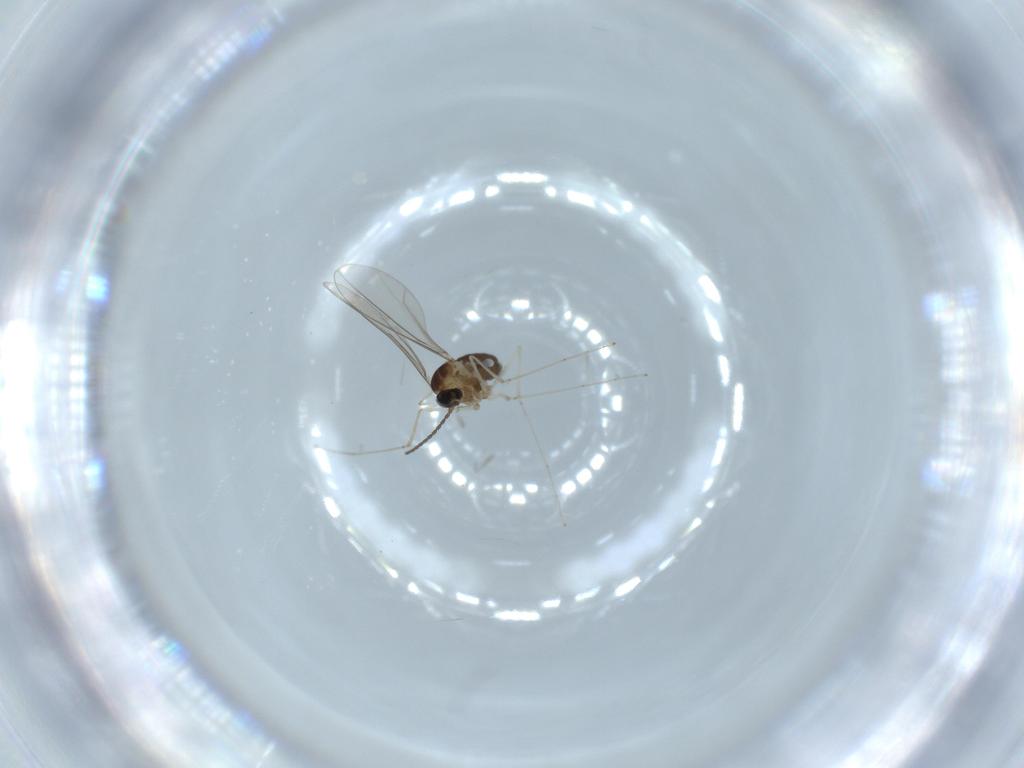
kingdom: Animalia
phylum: Arthropoda
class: Insecta
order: Diptera
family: Cecidomyiidae
